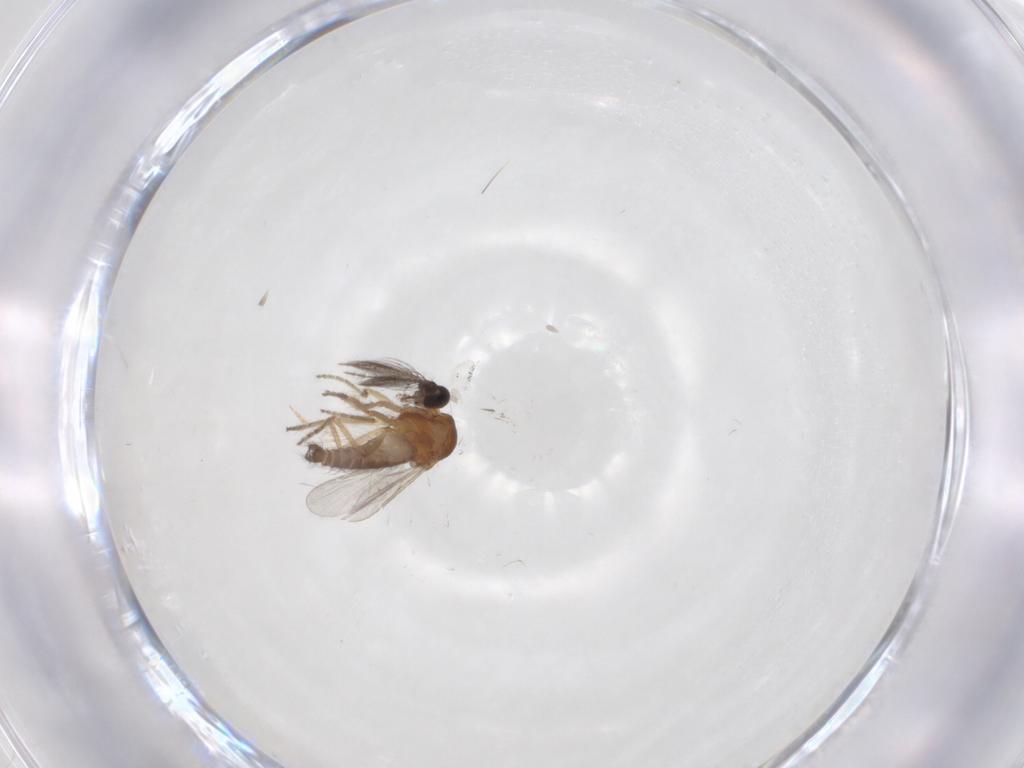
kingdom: Animalia
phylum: Arthropoda
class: Insecta
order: Diptera
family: Ceratopogonidae
